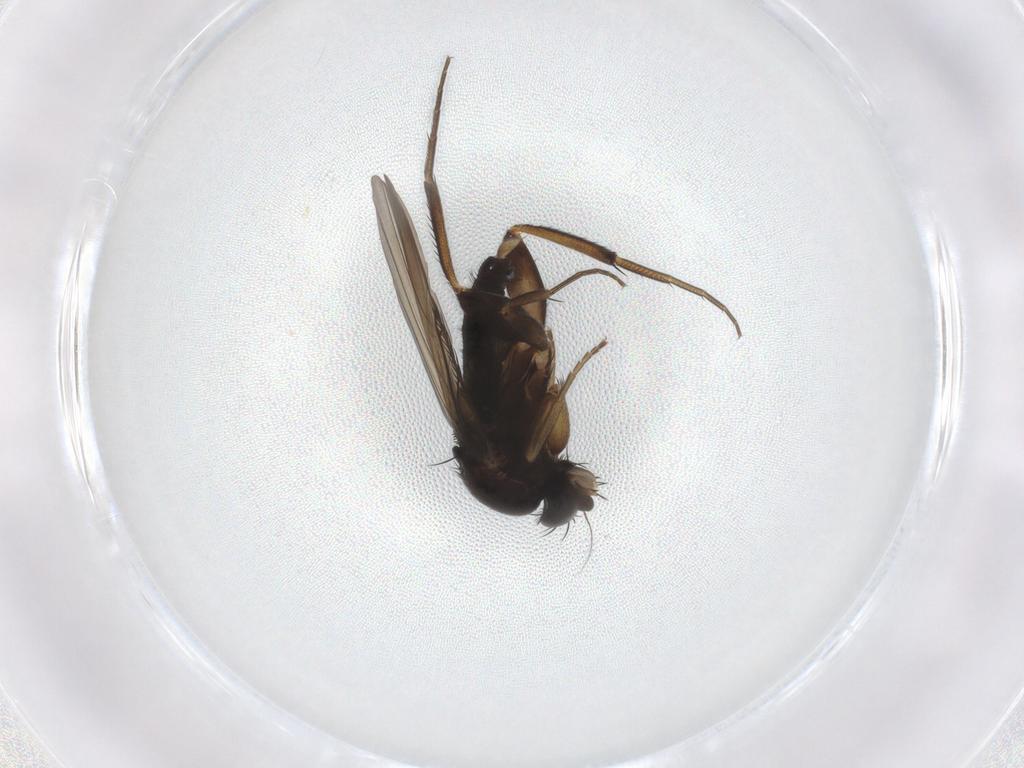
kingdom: Animalia
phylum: Arthropoda
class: Insecta
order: Diptera
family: Phoridae
